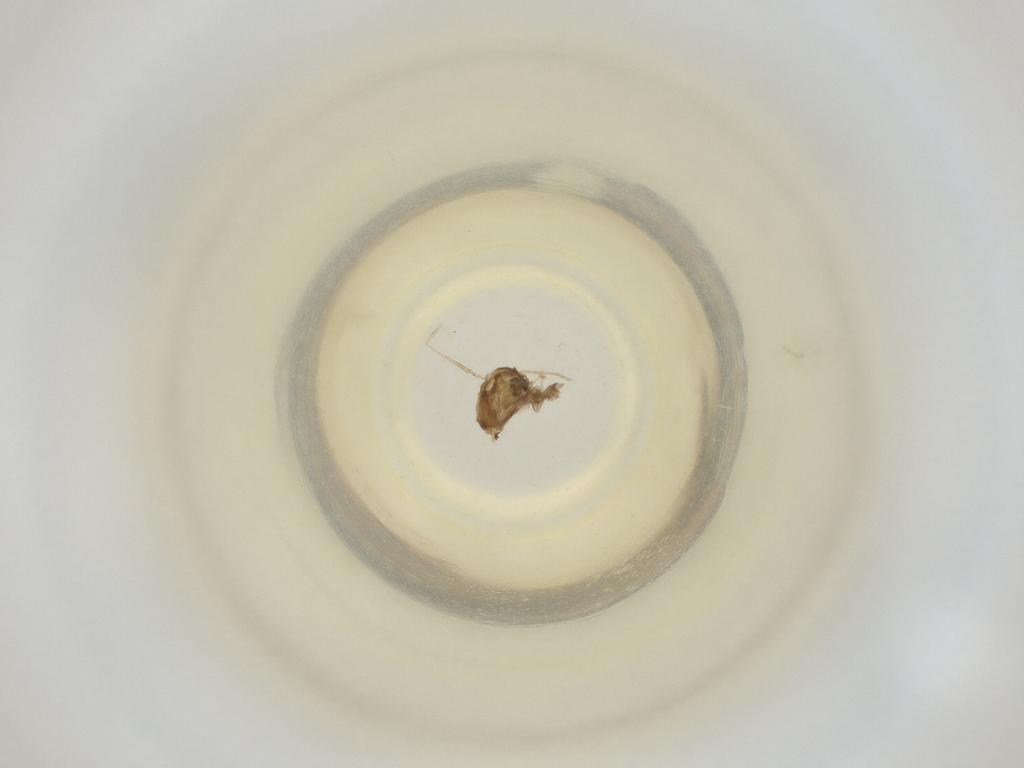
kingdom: Animalia
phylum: Arthropoda
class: Insecta
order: Diptera
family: Cecidomyiidae
